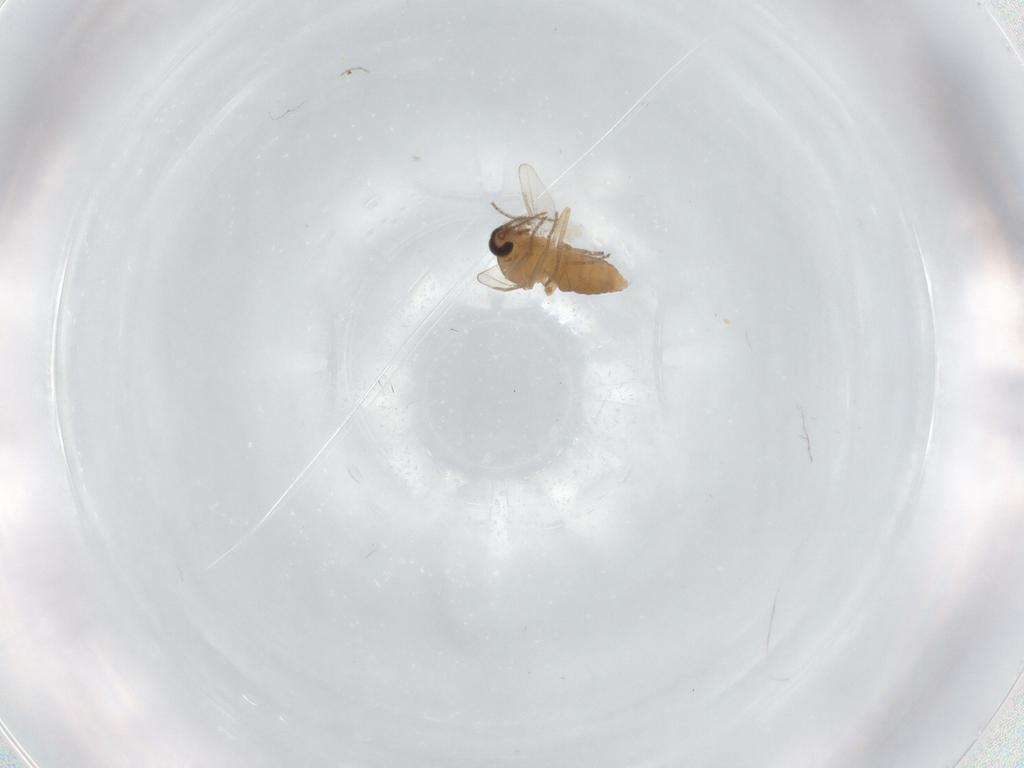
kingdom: Animalia
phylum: Arthropoda
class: Insecta
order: Diptera
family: Ceratopogonidae
